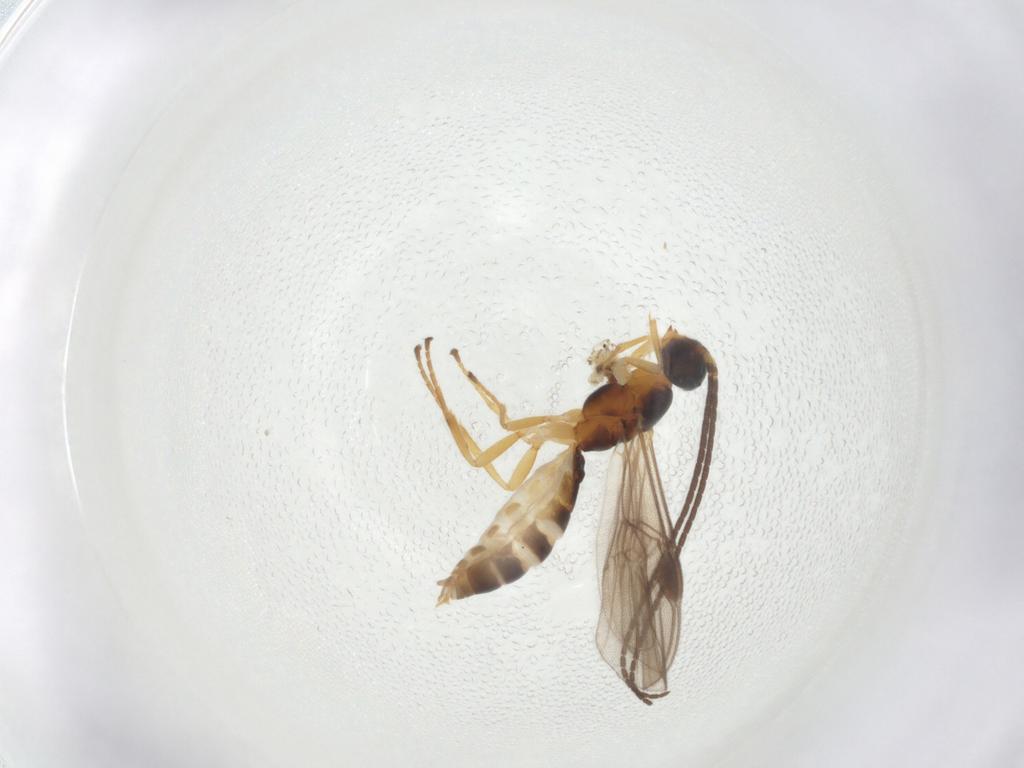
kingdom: Animalia
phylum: Arthropoda
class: Insecta
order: Hymenoptera
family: Braconidae
